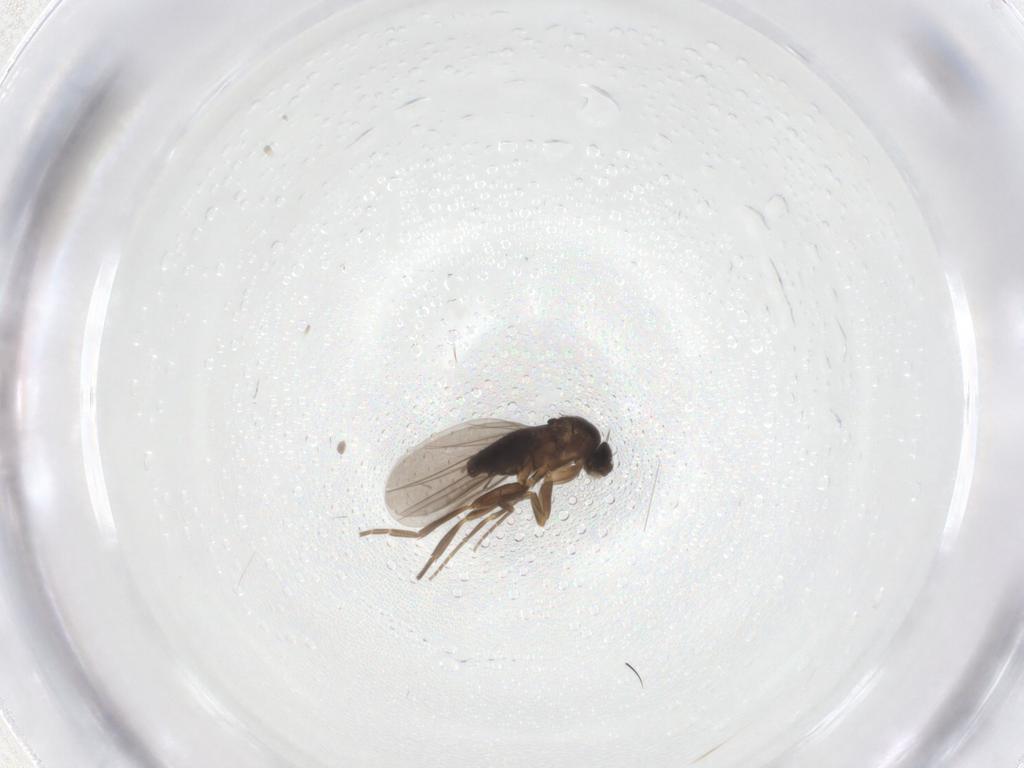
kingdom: Animalia
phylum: Arthropoda
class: Insecta
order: Diptera
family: Phoridae
